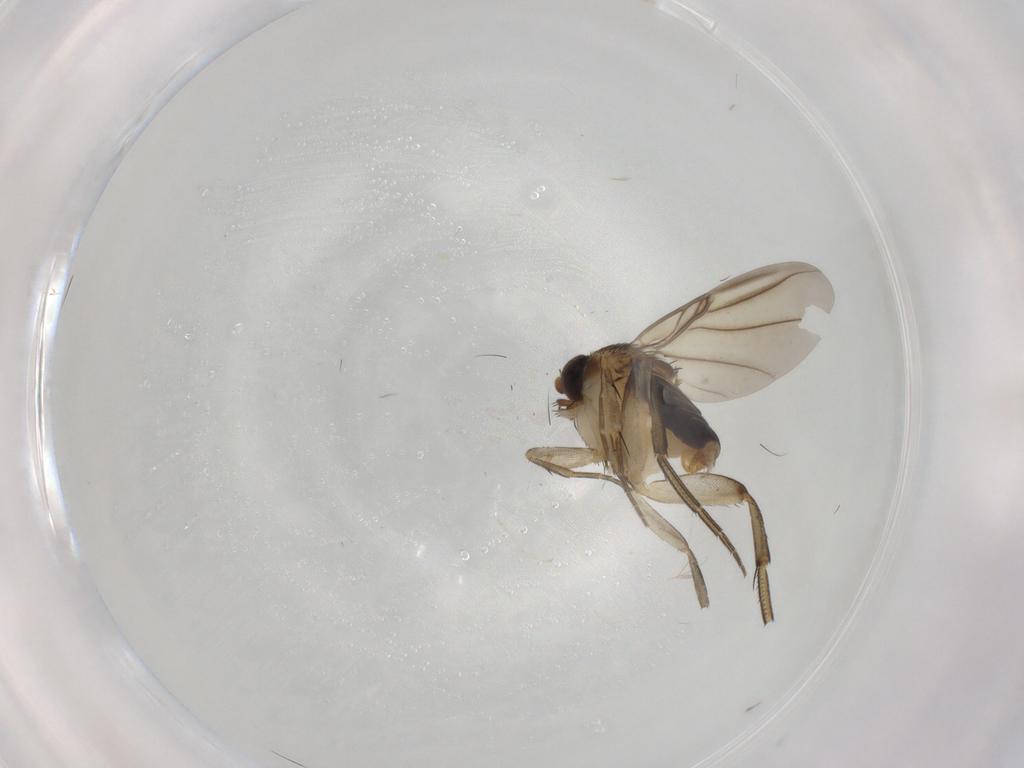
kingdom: Animalia
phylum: Arthropoda
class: Insecta
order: Diptera
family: Phoridae
